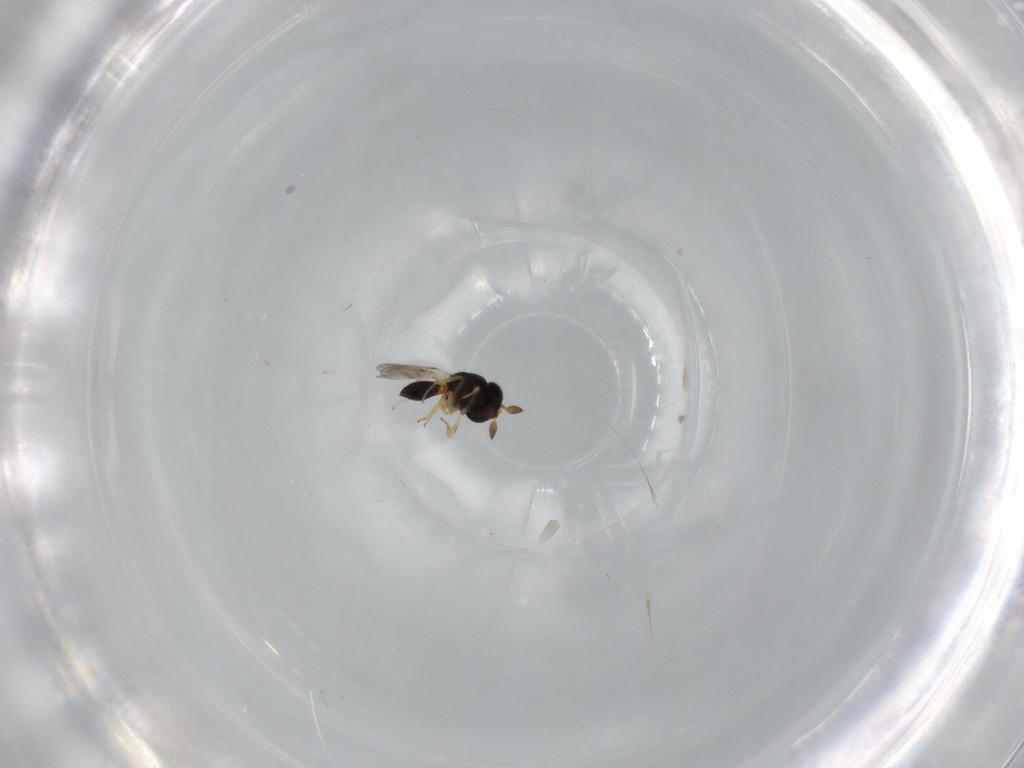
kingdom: Animalia
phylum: Arthropoda
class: Insecta
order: Hymenoptera
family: Scelionidae
